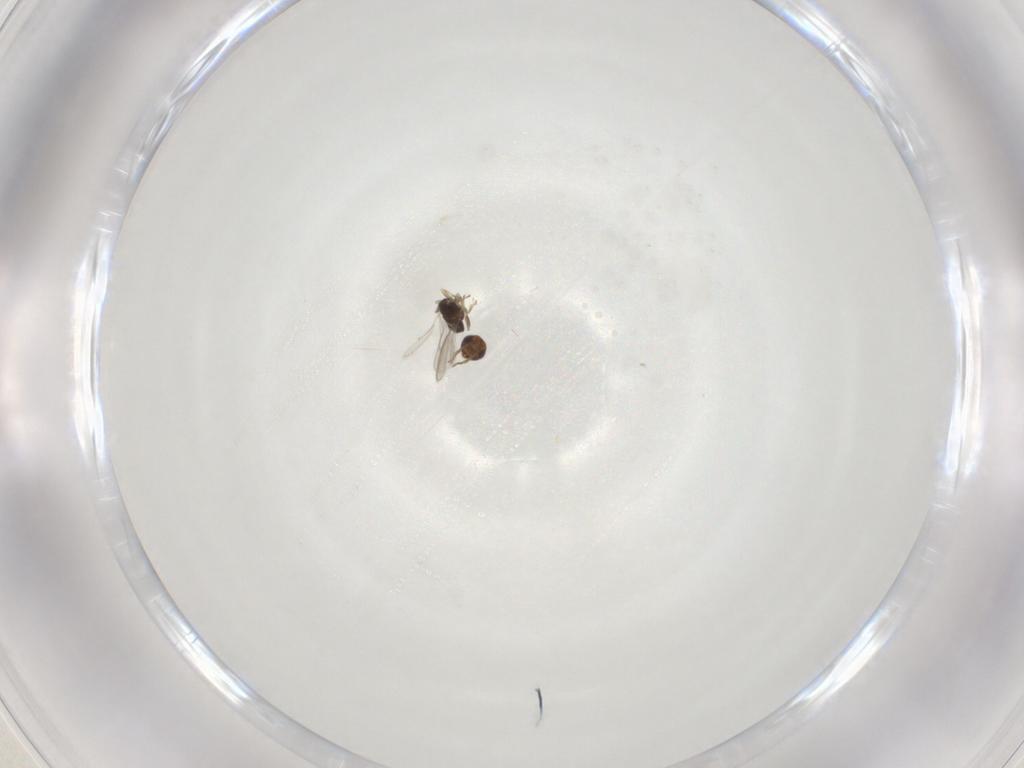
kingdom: Animalia
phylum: Arthropoda
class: Insecta
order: Hymenoptera
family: Aphelinidae
